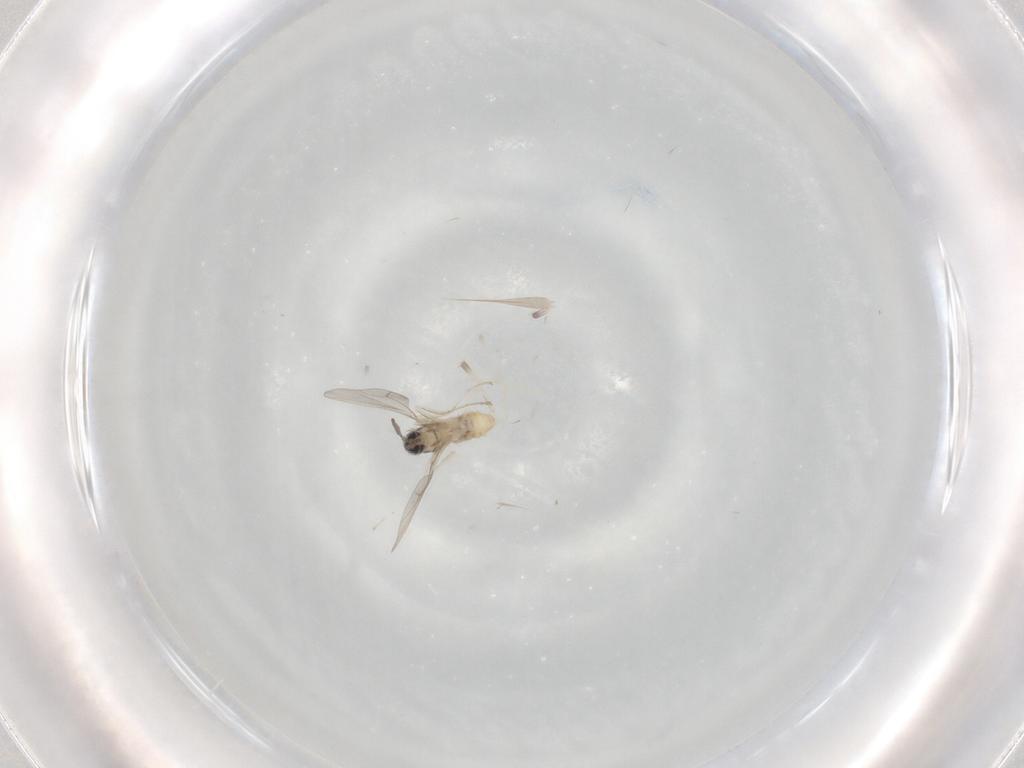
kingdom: Animalia
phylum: Arthropoda
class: Insecta
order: Diptera
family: Cecidomyiidae
